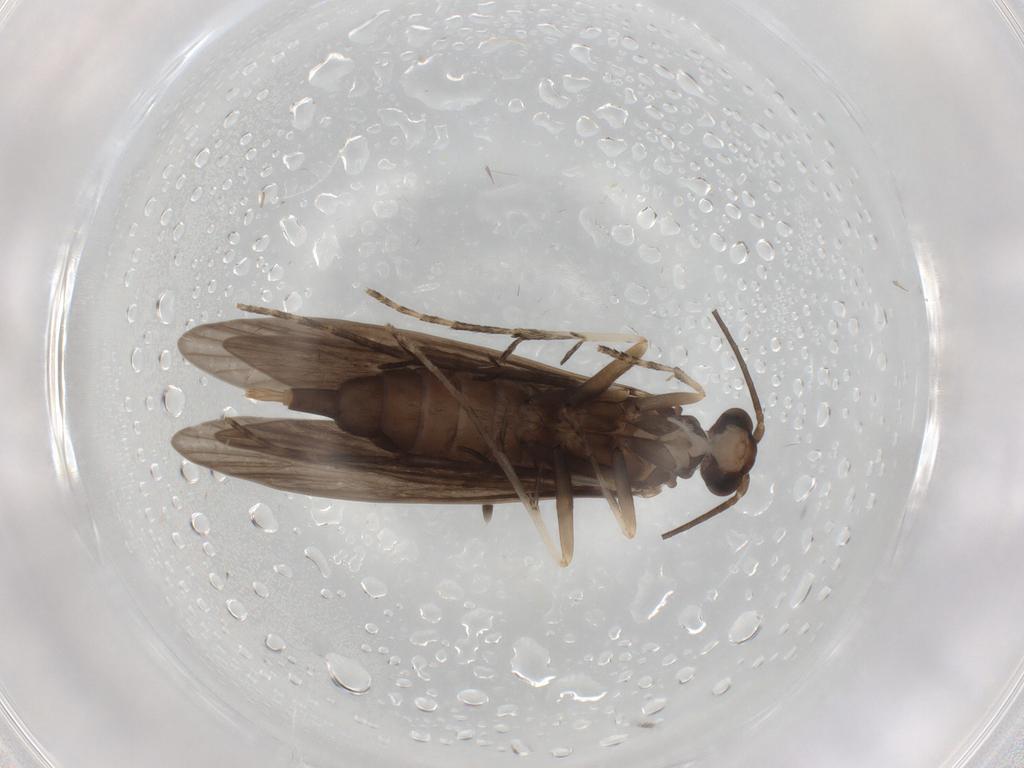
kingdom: Animalia
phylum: Arthropoda
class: Insecta
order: Trichoptera
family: Xiphocentronidae
